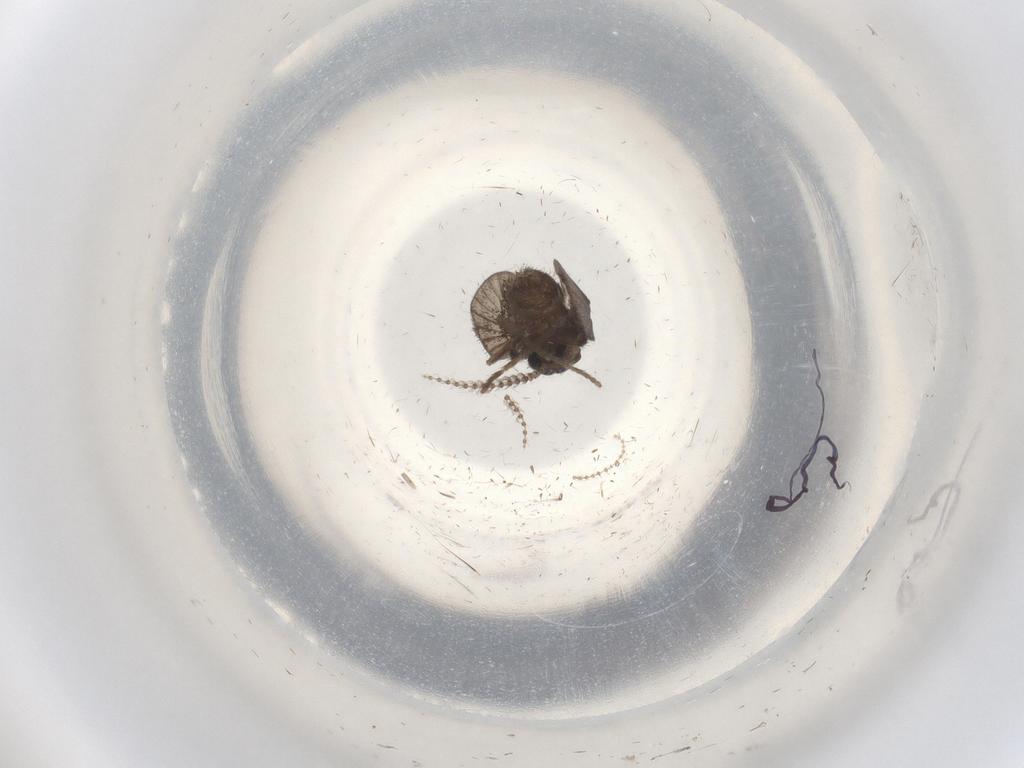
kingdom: Animalia
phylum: Arthropoda
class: Insecta
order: Diptera
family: Psychodidae
